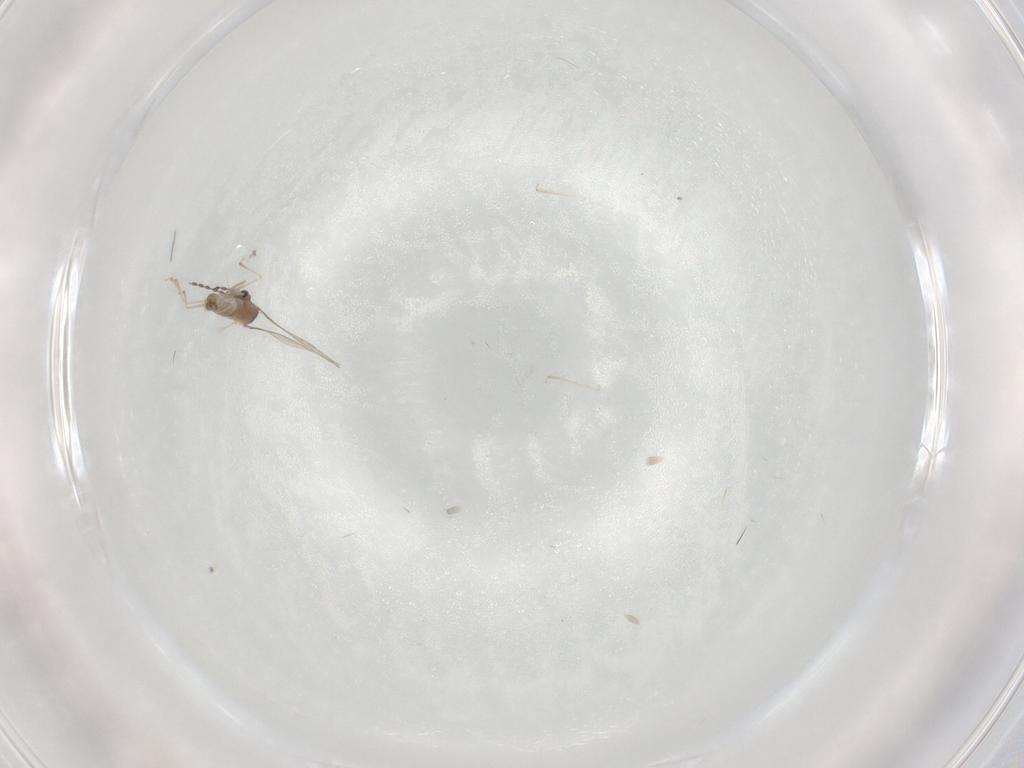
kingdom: Animalia
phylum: Arthropoda
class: Insecta
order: Diptera
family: Cecidomyiidae
